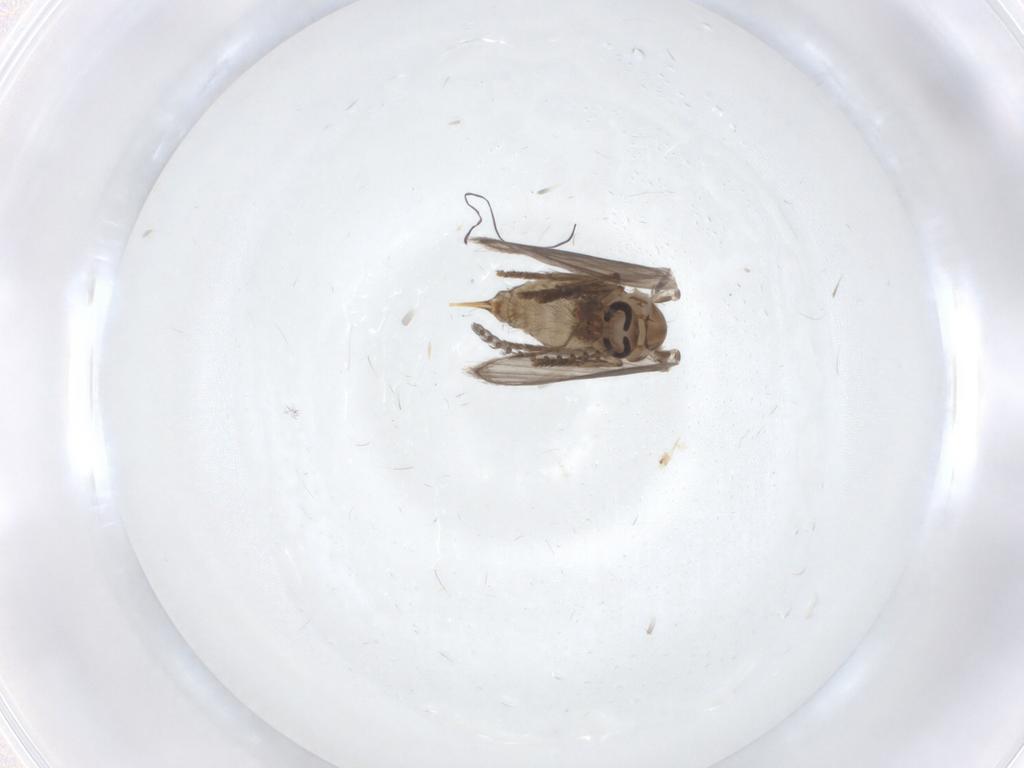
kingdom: Animalia
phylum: Arthropoda
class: Insecta
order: Diptera
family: Psychodidae
